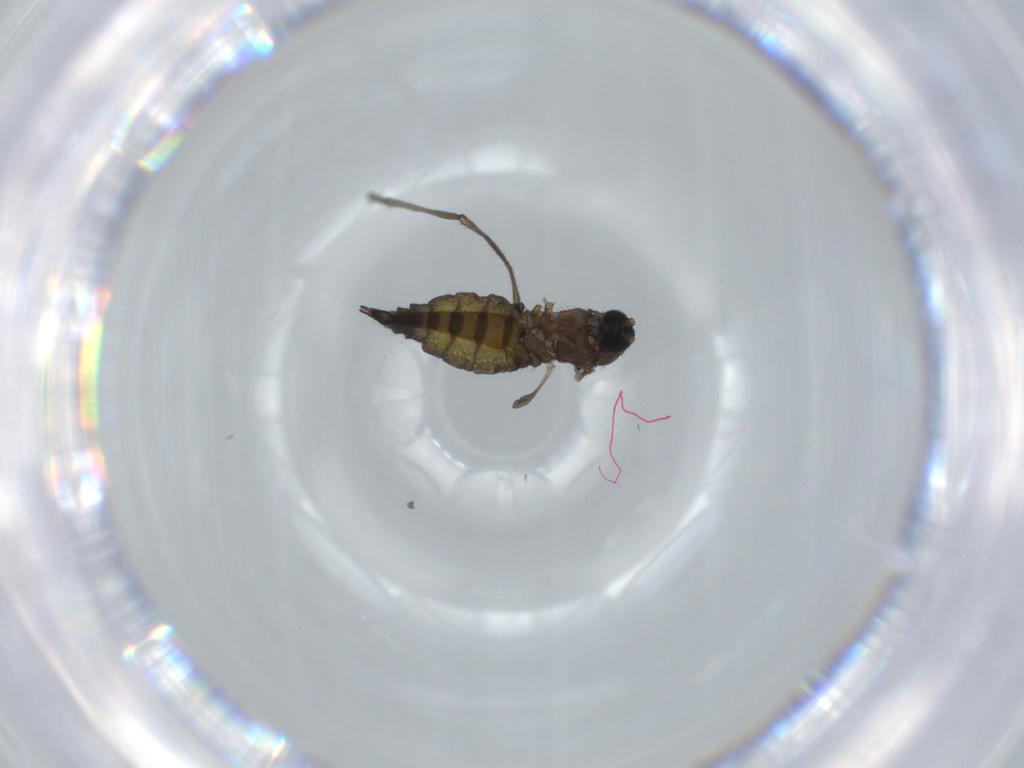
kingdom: Animalia
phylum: Arthropoda
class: Insecta
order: Diptera
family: Sciaridae
